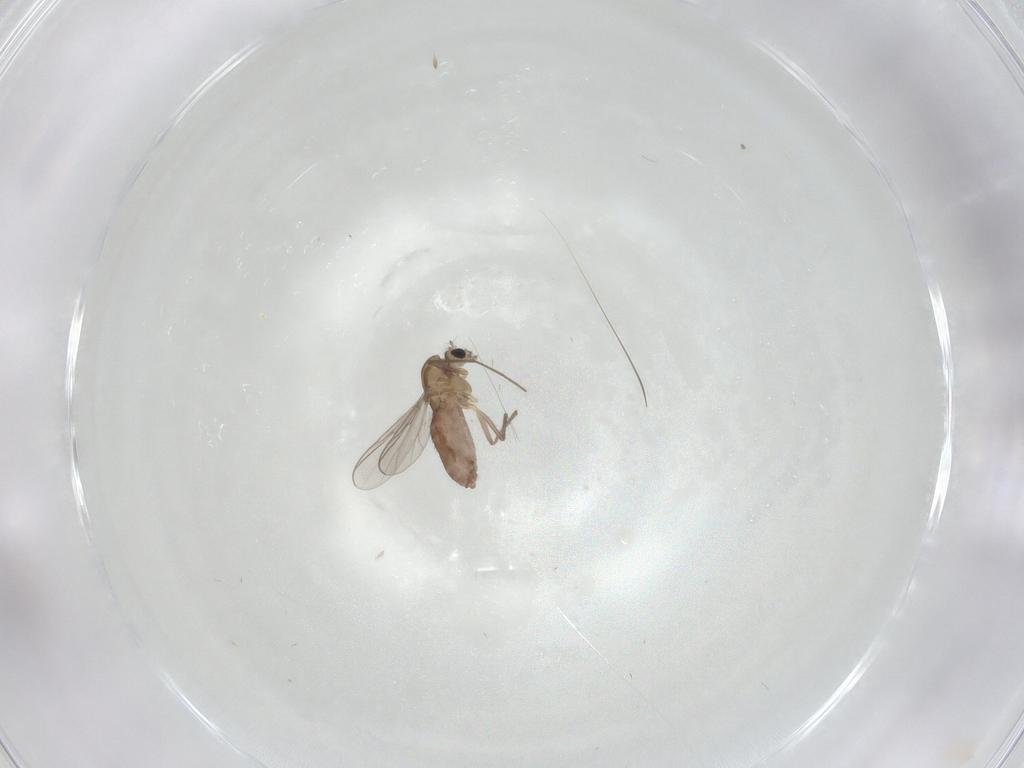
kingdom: Animalia
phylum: Arthropoda
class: Insecta
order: Diptera
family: Chironomidae
